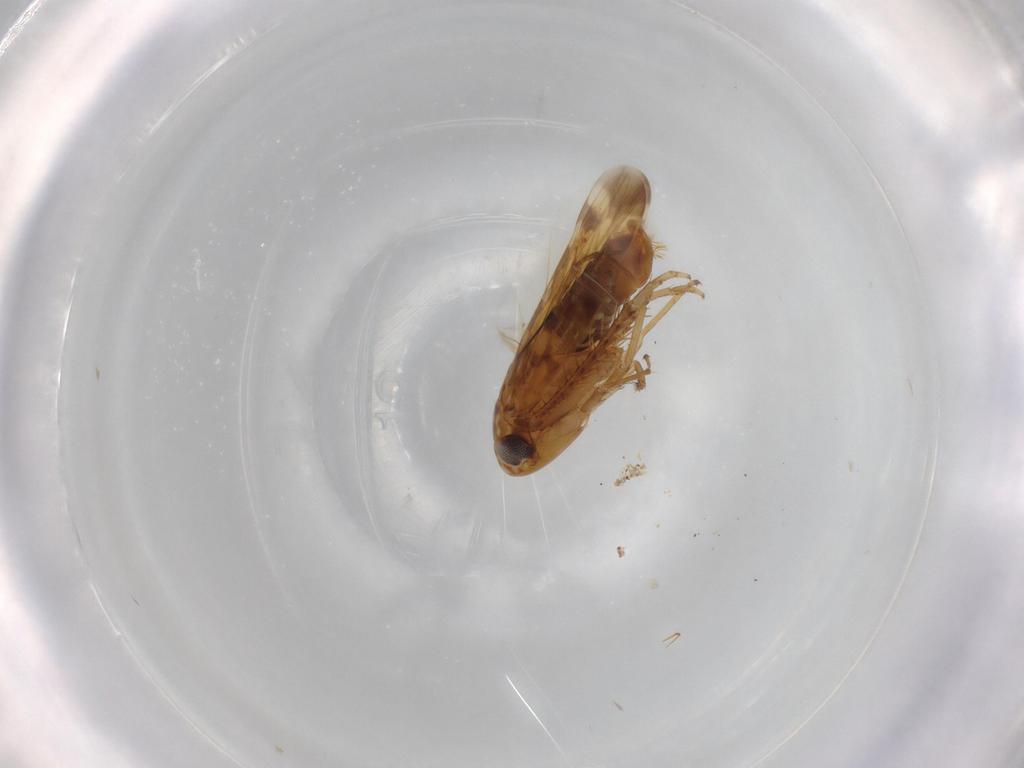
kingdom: Animalia
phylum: Arthropoda
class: Insecta
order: Hemiptera
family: Cicadellidae
